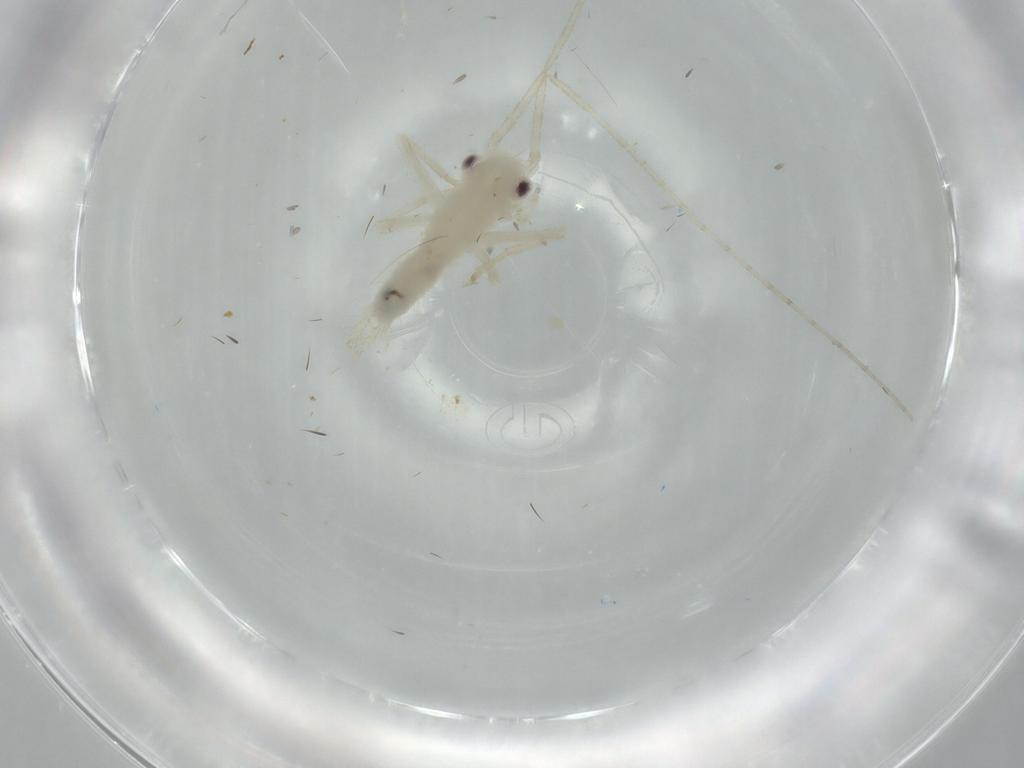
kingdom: Animalia
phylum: Arthropoda
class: Insecta
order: Orthoptera
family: Trigonidiidae
